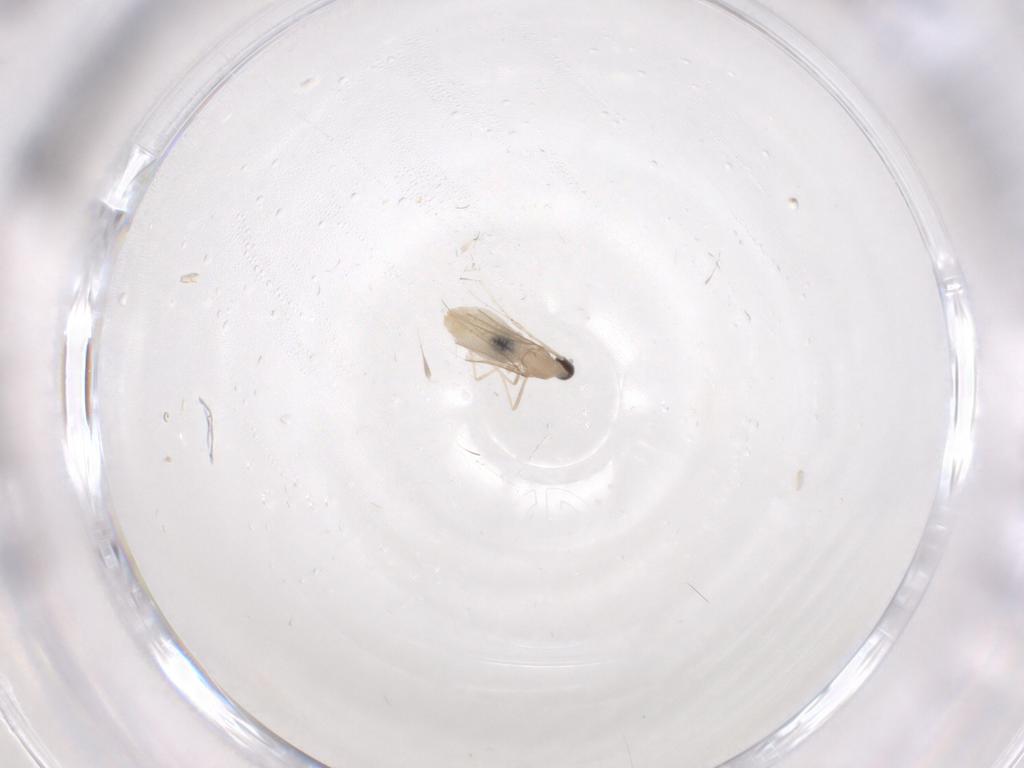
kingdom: Animalia
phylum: Arthropoda
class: Insecta
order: Diptera
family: Cecidomyiidae
